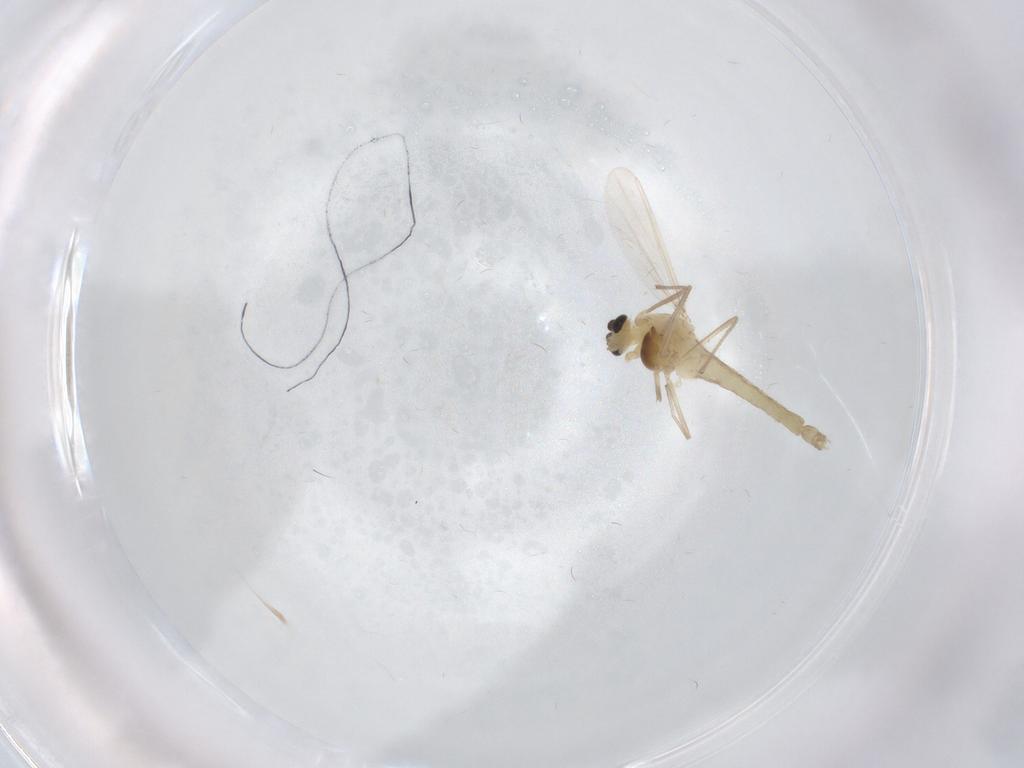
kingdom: Animalia
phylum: Arthropoda
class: Insecta
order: Diptera
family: Chironomidae
